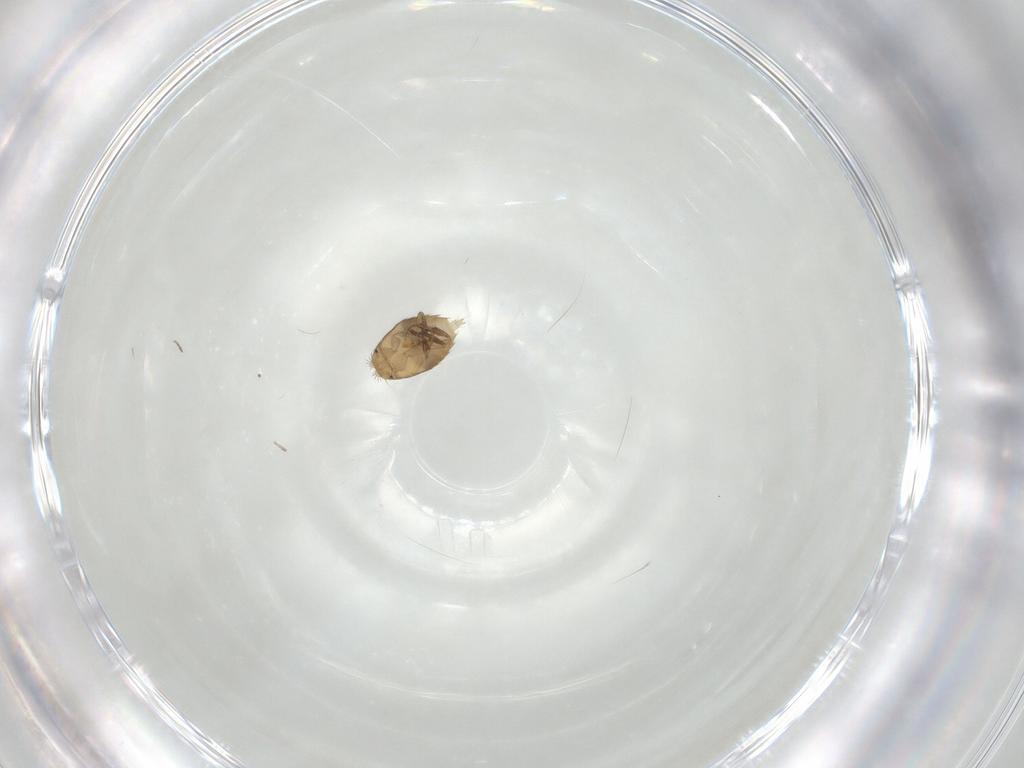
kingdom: Animalia
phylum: Arthropoda
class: Insecta
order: Diptera
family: Phoridae
